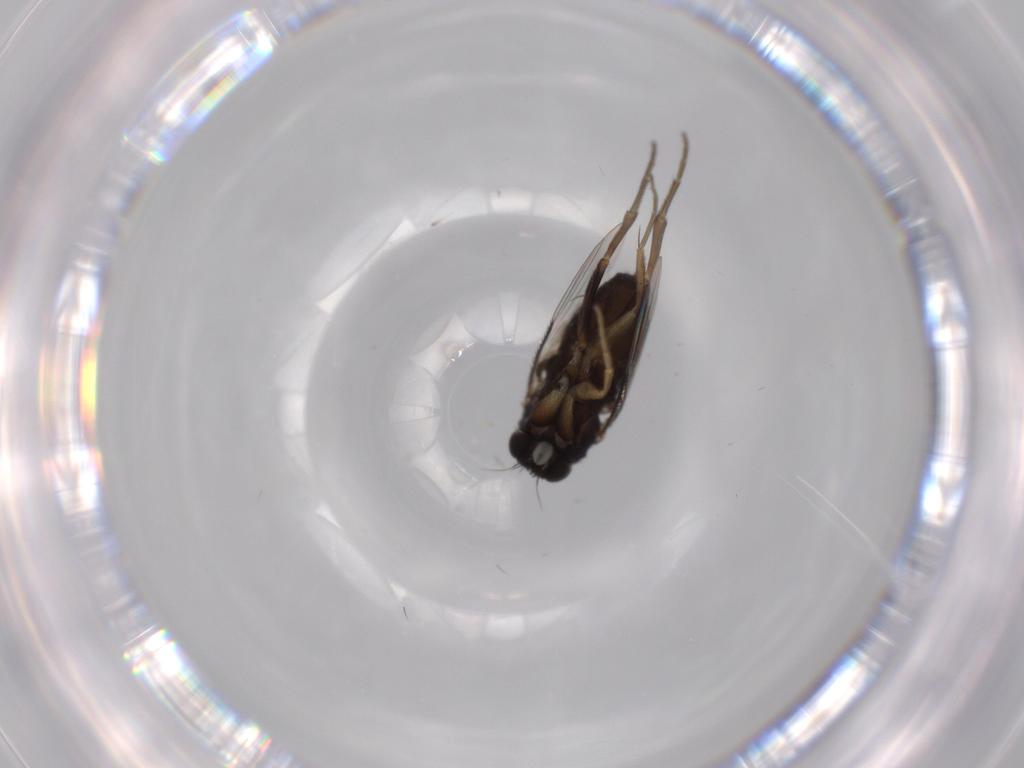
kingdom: Animalia
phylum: Arthropoda
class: Insecta
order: Diptera
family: Phoridae
